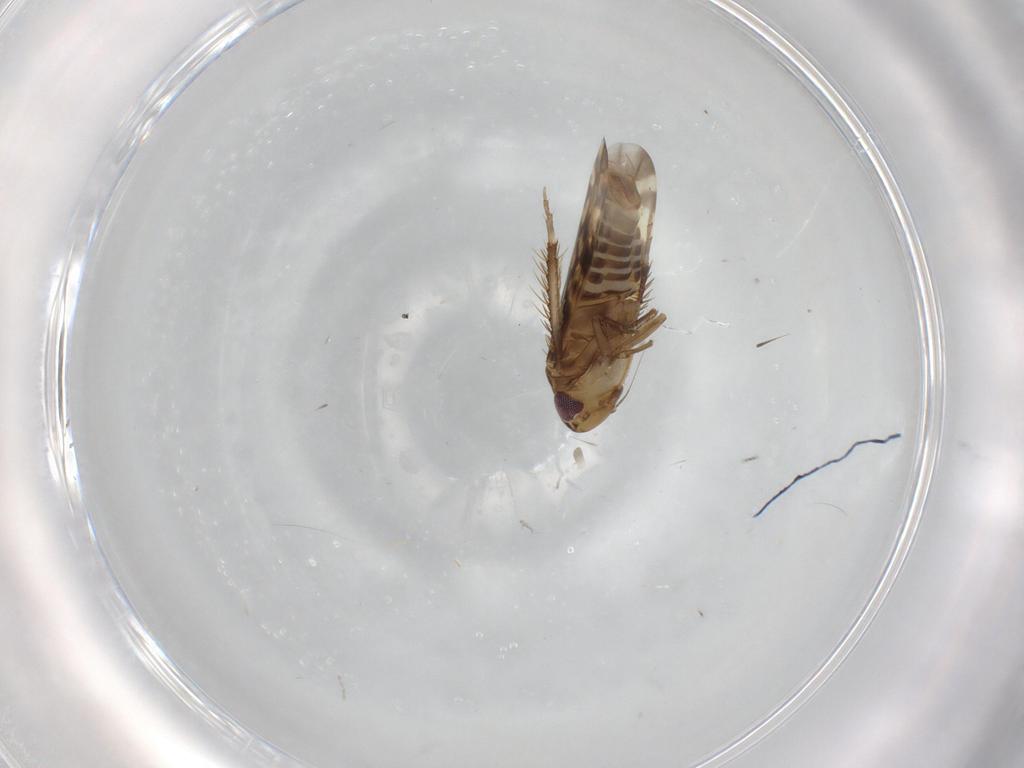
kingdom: Animalia
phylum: Arthropoda
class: Insecta
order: Hemiptera
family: Cicadellidae
